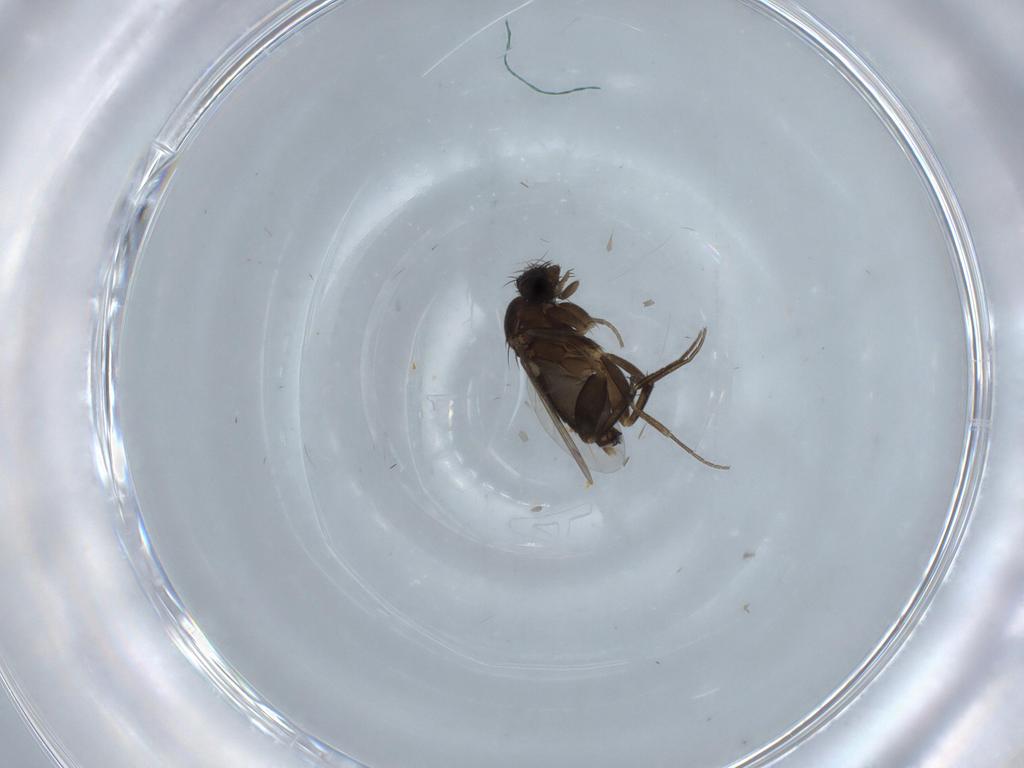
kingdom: Animalia
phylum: Arthropoda
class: Insecta
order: Diptera
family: Phoridae
